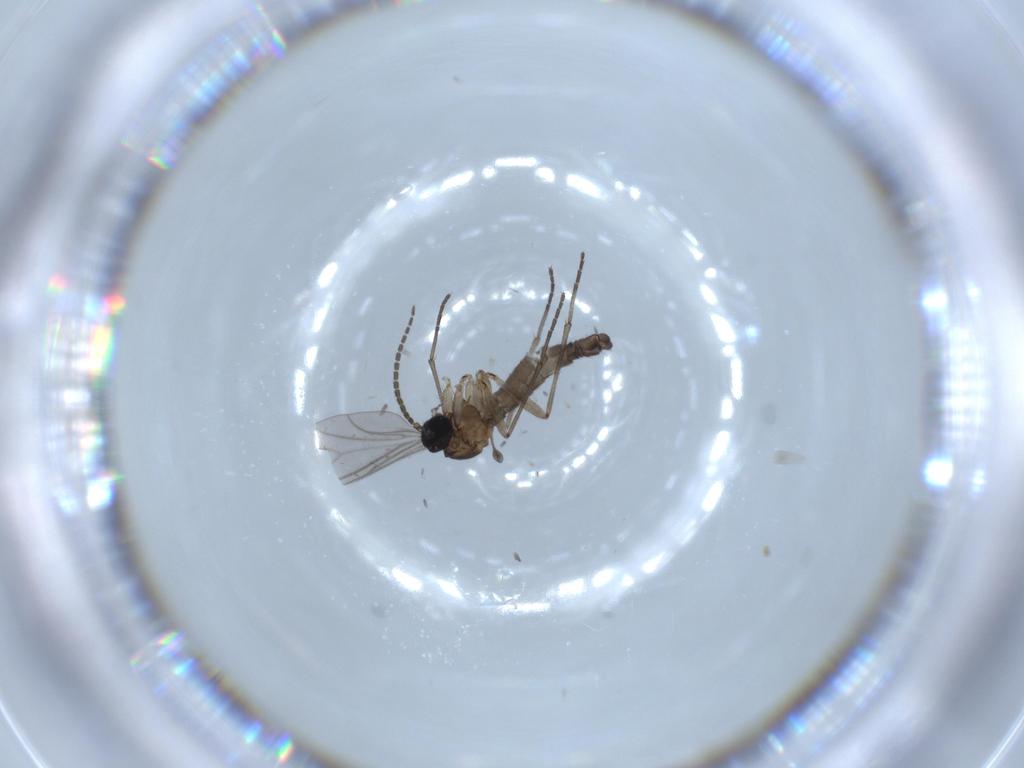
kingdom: Animalia
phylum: Arthropoda
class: Insecta
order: Diptera
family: Sciaridae
